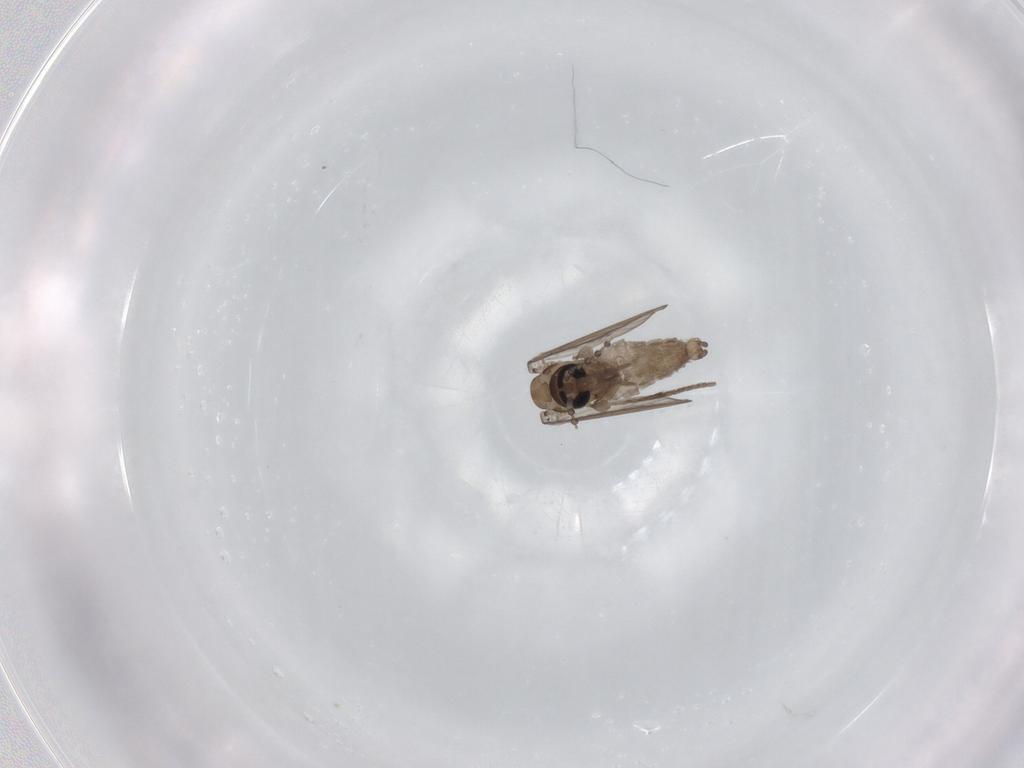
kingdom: Animalia
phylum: Arthropoda
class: Insecta
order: Diptera
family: Psychodidae
